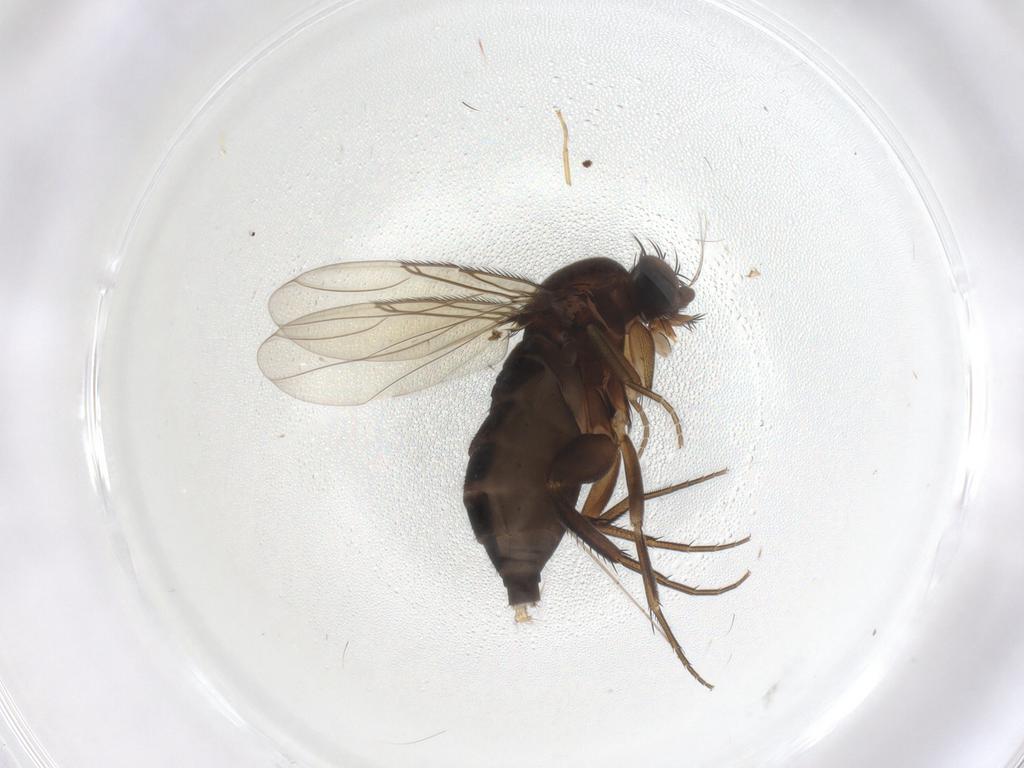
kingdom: Animalia
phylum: Arthropoda
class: Insecta
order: Diptera
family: Phoridae
